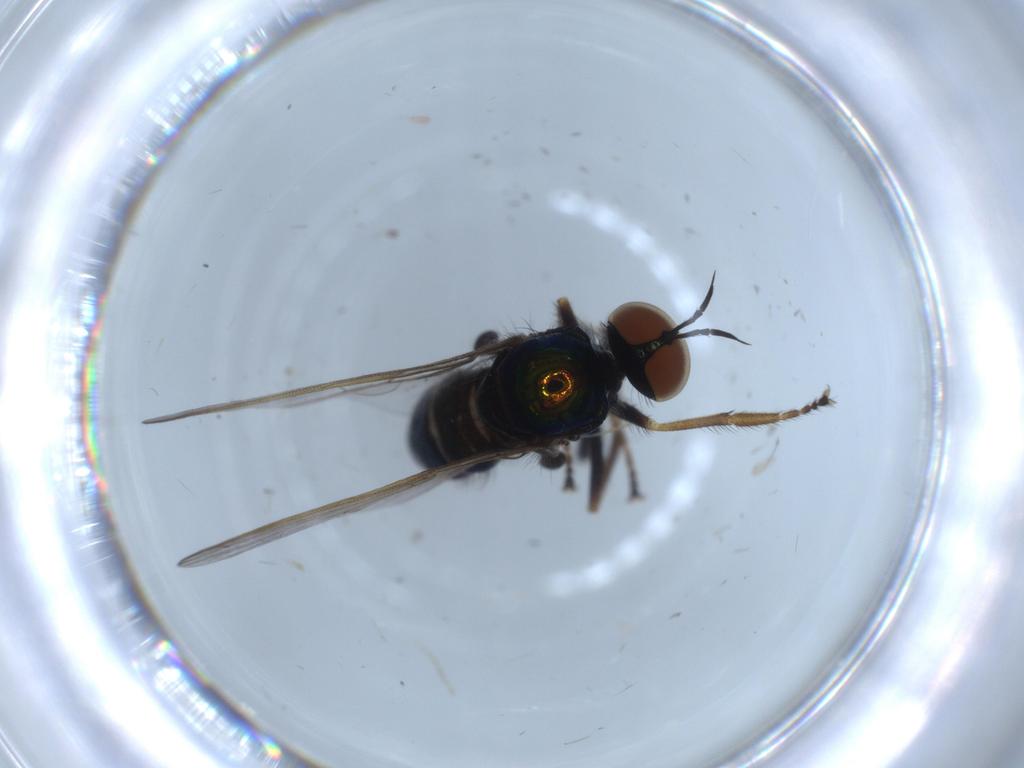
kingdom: Animalia
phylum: Arthropoda
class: Insecta
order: Diptera
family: Empididae
